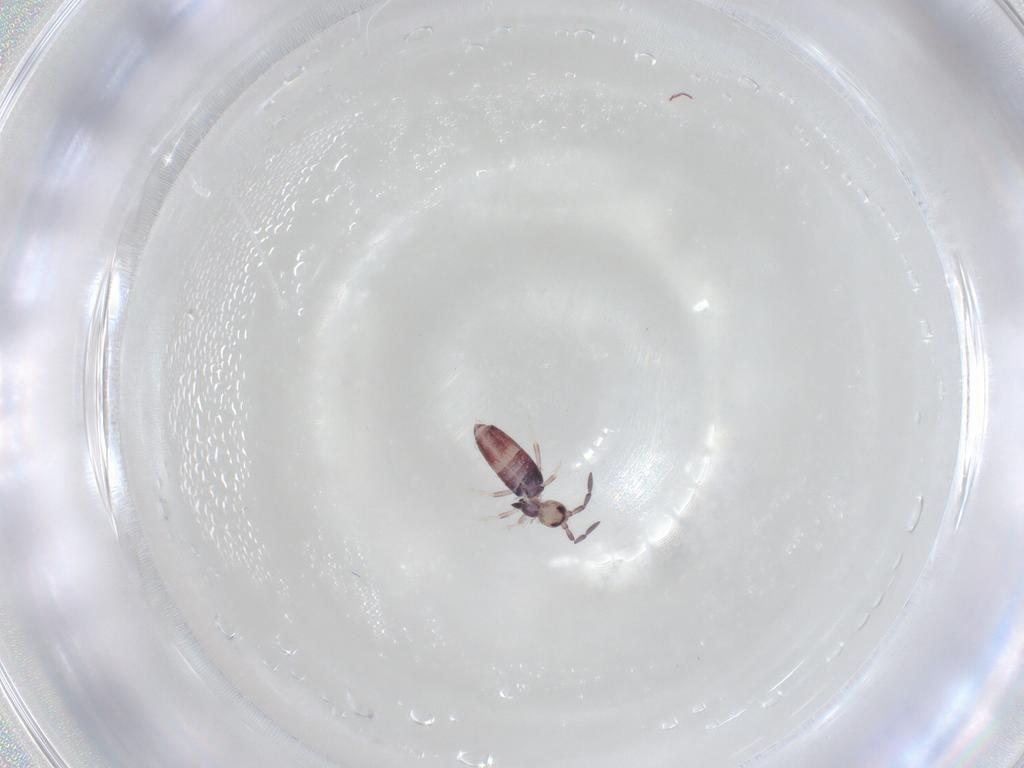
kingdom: Animalia
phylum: Arthropoda
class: Collembola
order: Entomobryomorpha
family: Entomobryidae
